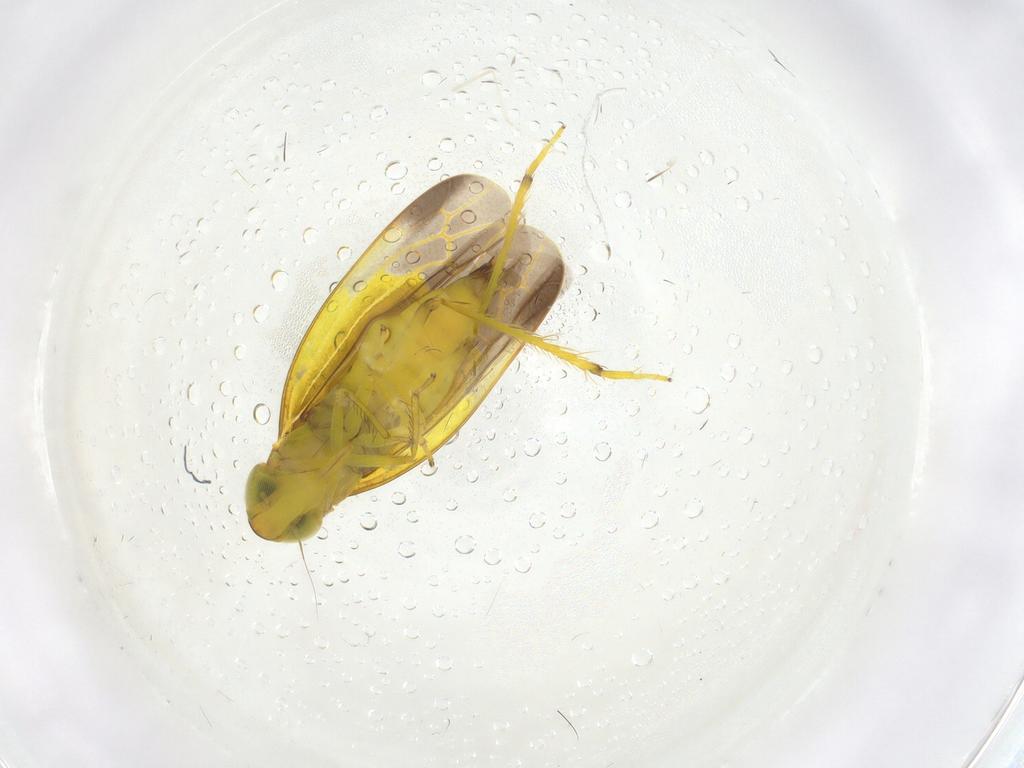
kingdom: Animalia
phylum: Arthropoda
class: Insecta
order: Hemiptera
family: Cicadellidae
